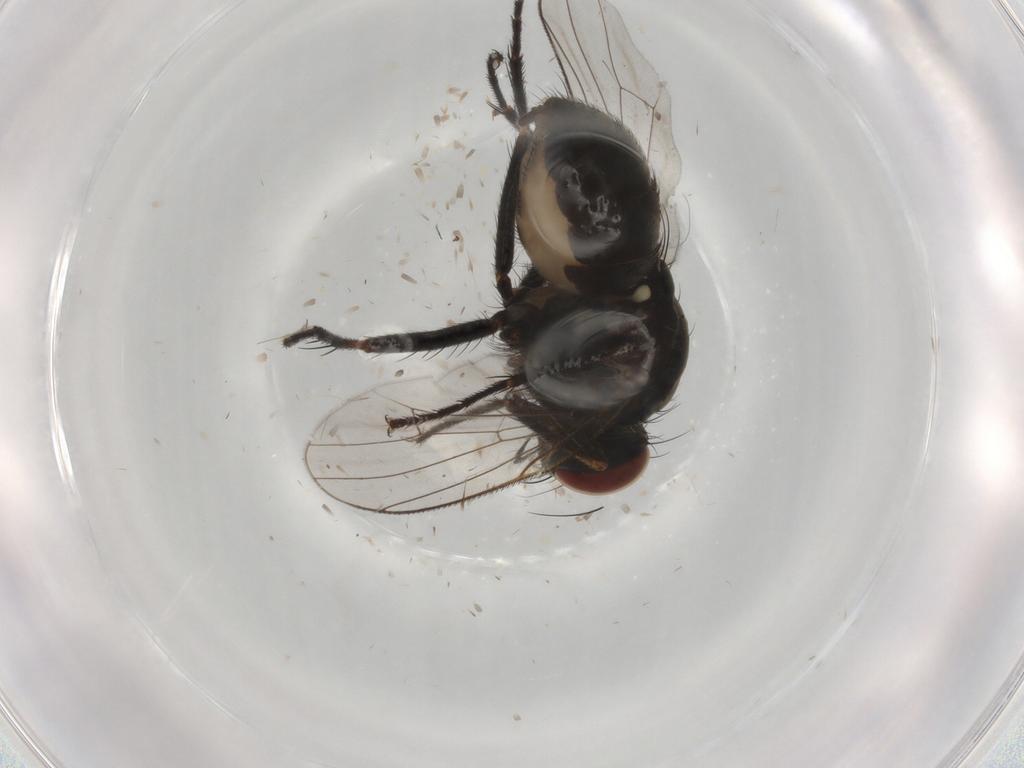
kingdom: Animalia
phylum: Arthropoda
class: Insecta
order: Diptera
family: Muscidae
